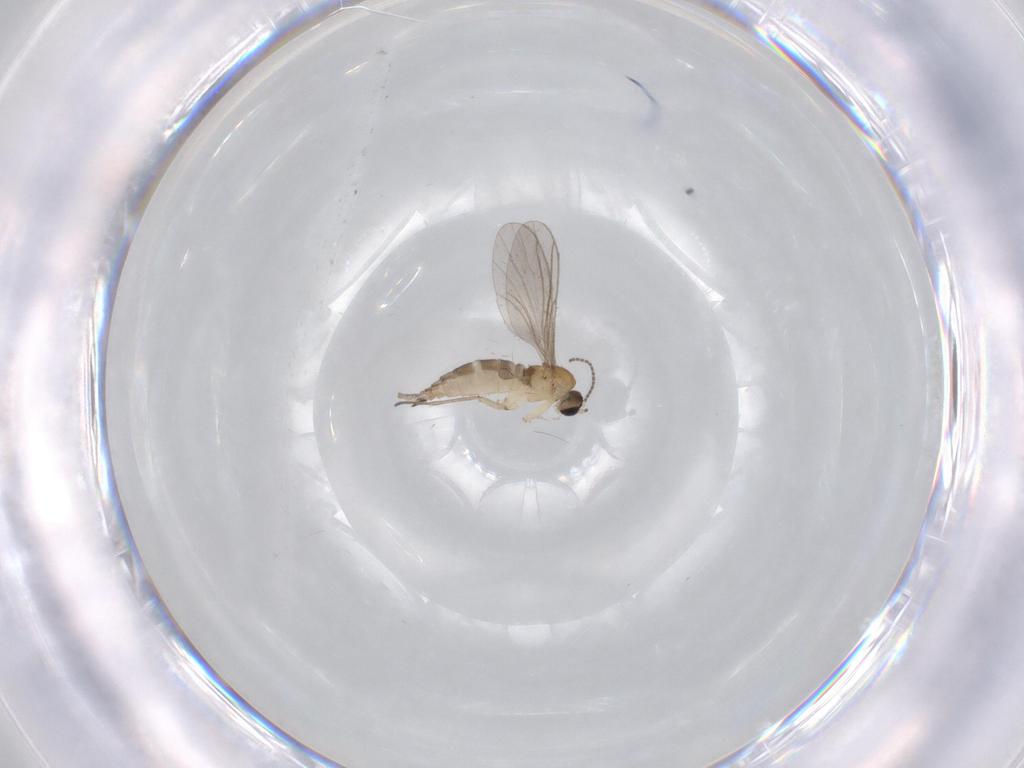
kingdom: Animalia
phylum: Arthropoda
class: Insecta
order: Diptera
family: Sciaridae
